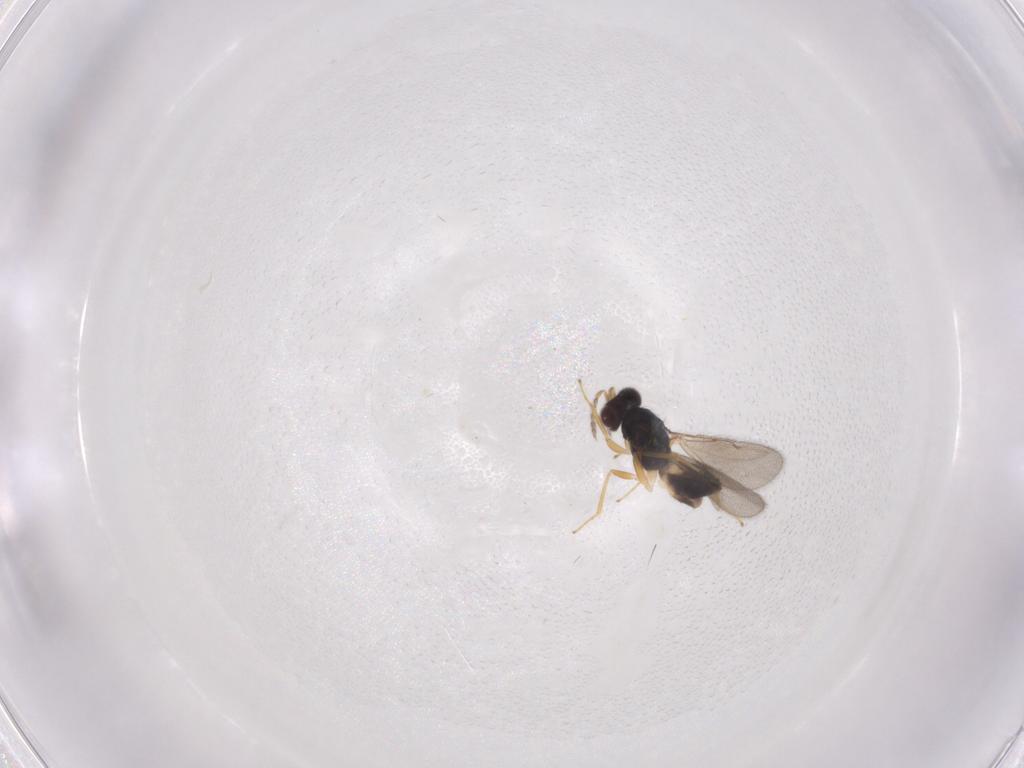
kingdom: Animalia
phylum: Arthropoda
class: Insecta
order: Hymenoptera
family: Eulophidae
